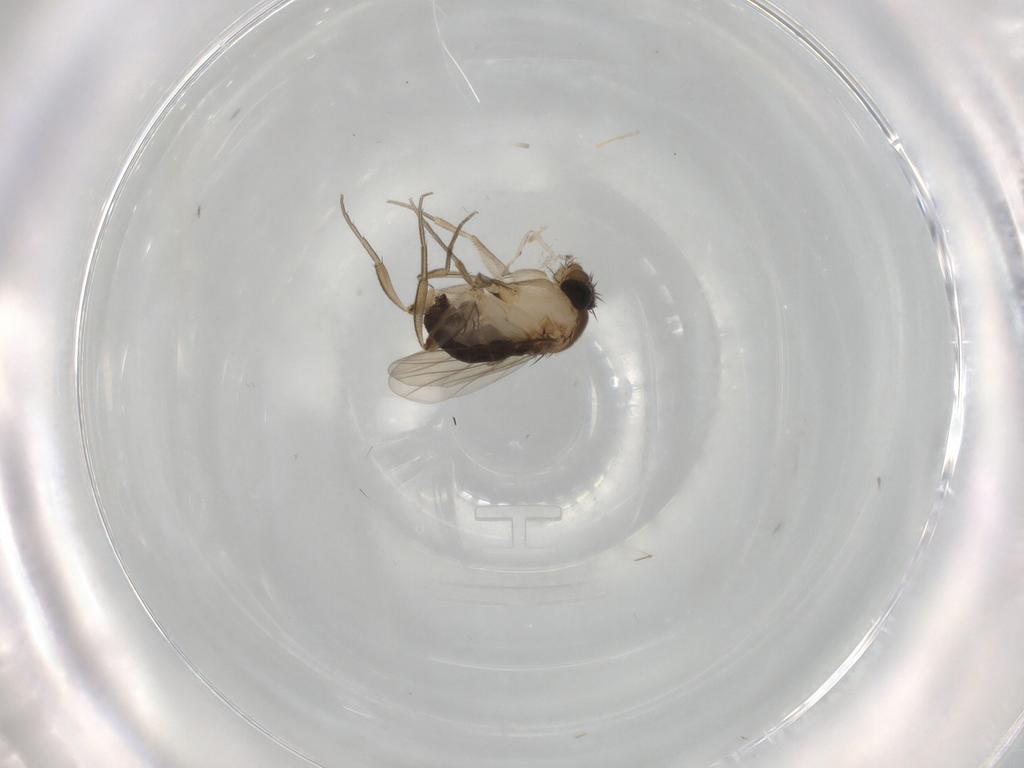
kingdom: Animalia
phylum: Arthropoda
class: Insecta
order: Diptera
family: Phoridae
